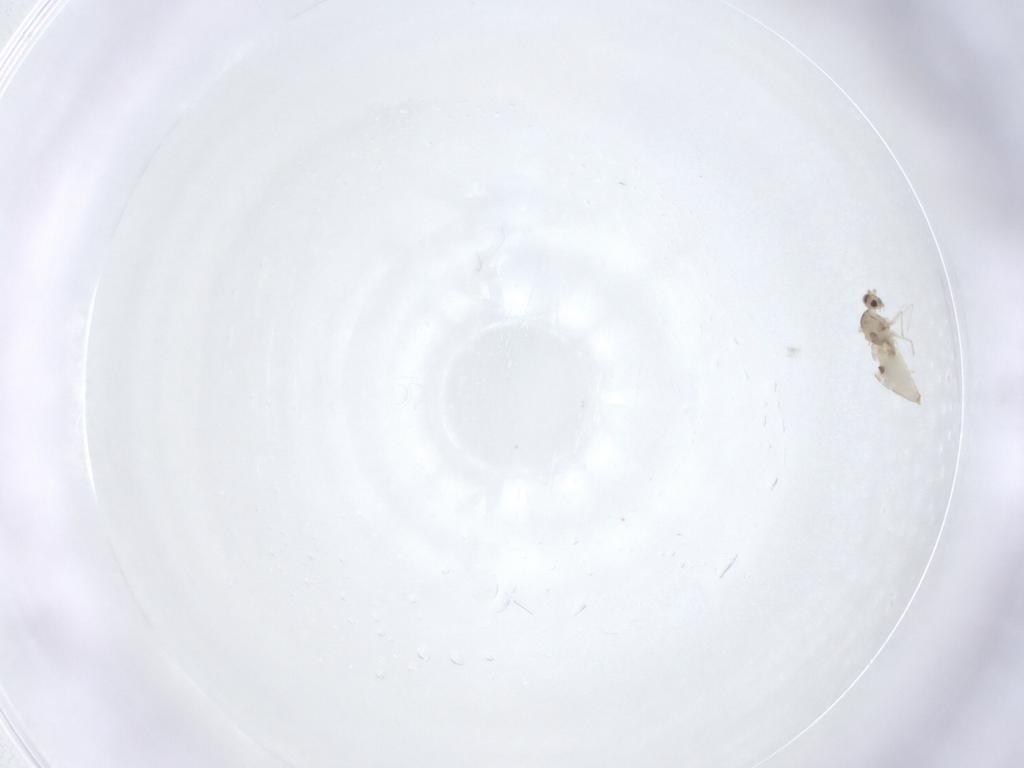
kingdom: Animalia
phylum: Arthropoda
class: Insecta
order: Diptera
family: Cecidomyiidae
